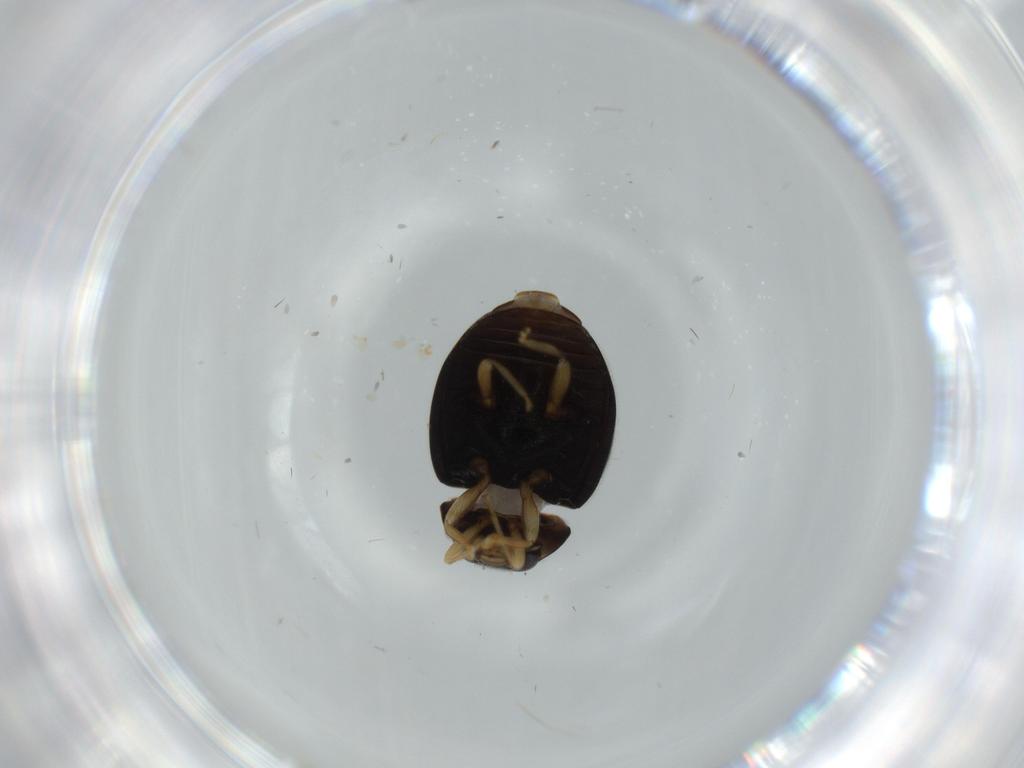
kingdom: Animalia
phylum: Arthropoda
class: Insecta
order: Coleoptera
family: Coccinellidae
